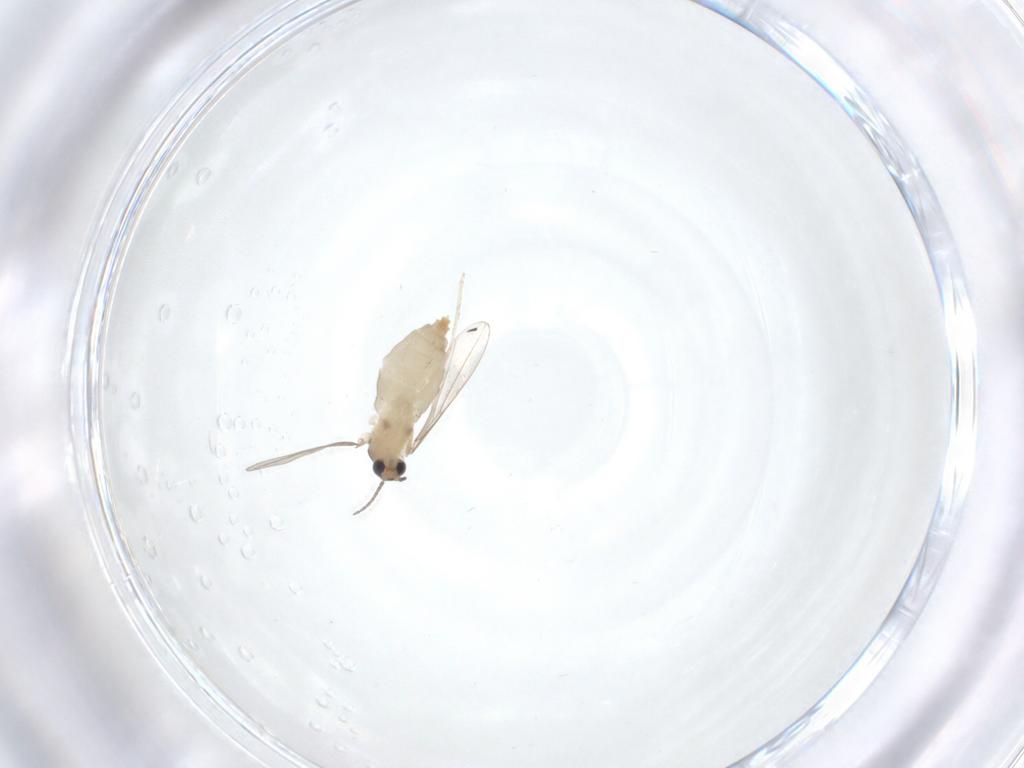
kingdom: Animalia
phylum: Arthropoda
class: Insecta
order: Diptera
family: Phoridae
